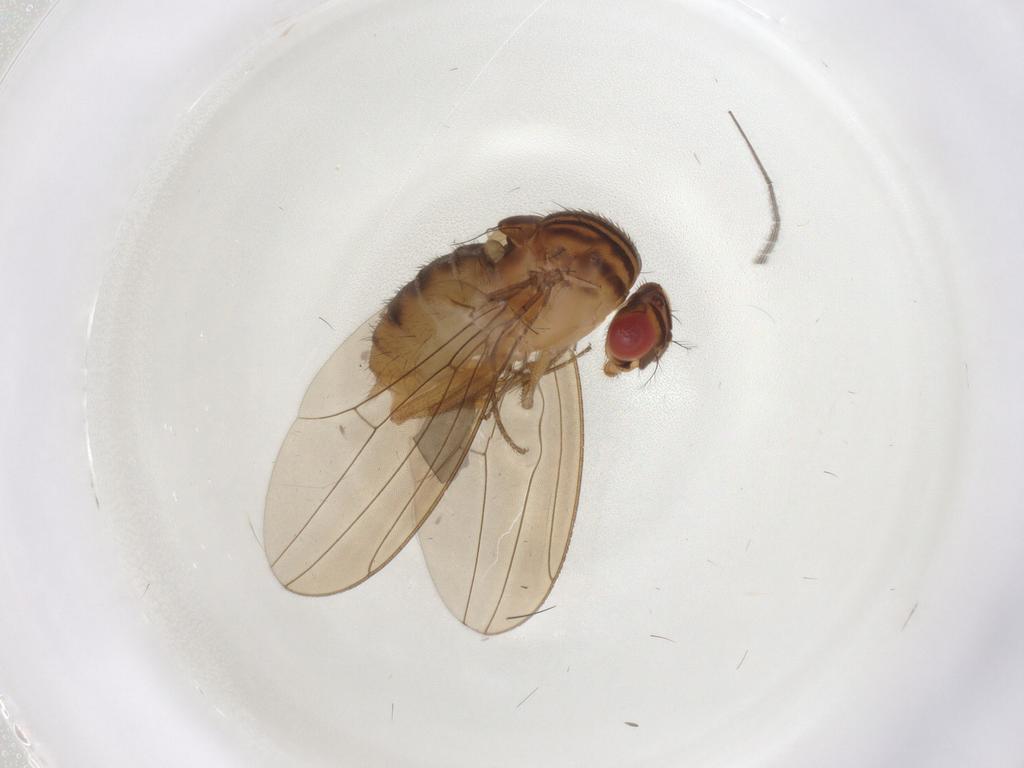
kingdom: Animalia
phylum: Arthropoda
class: Insecta
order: Diptera
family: Drosophilidae
